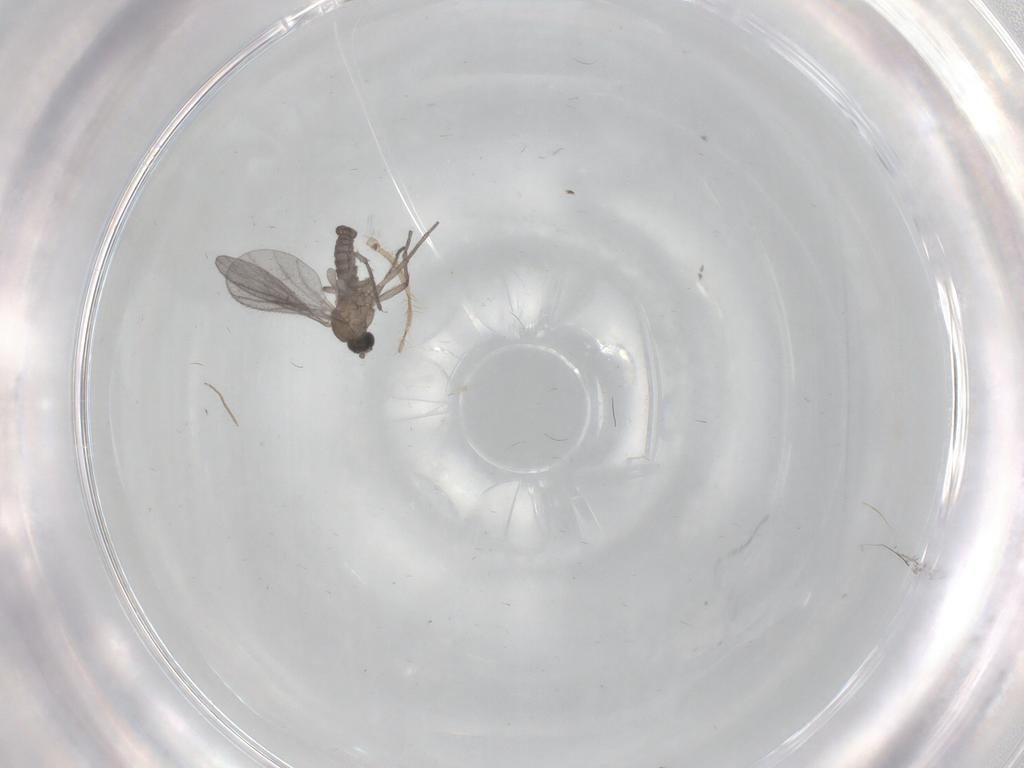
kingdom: Animalia
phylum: Arthropoda
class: Insecta
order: Diptera
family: Sciaridae
